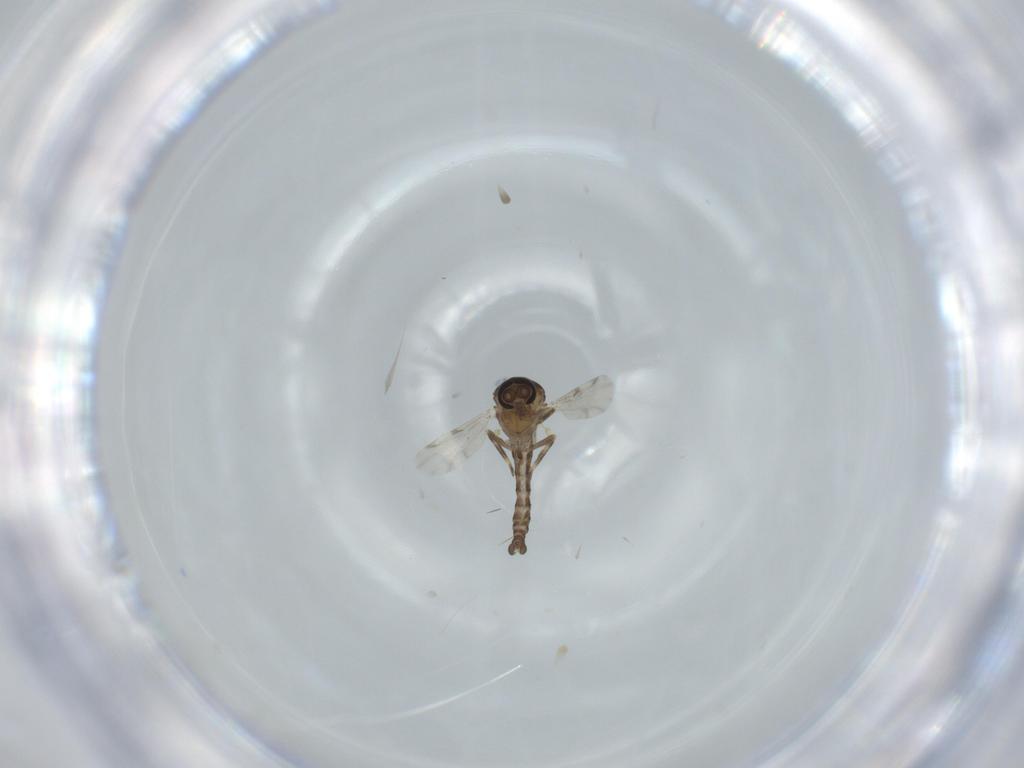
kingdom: Animalia
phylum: Arthropoda
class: Insecta
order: Diptera
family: Ceratopogonidae
